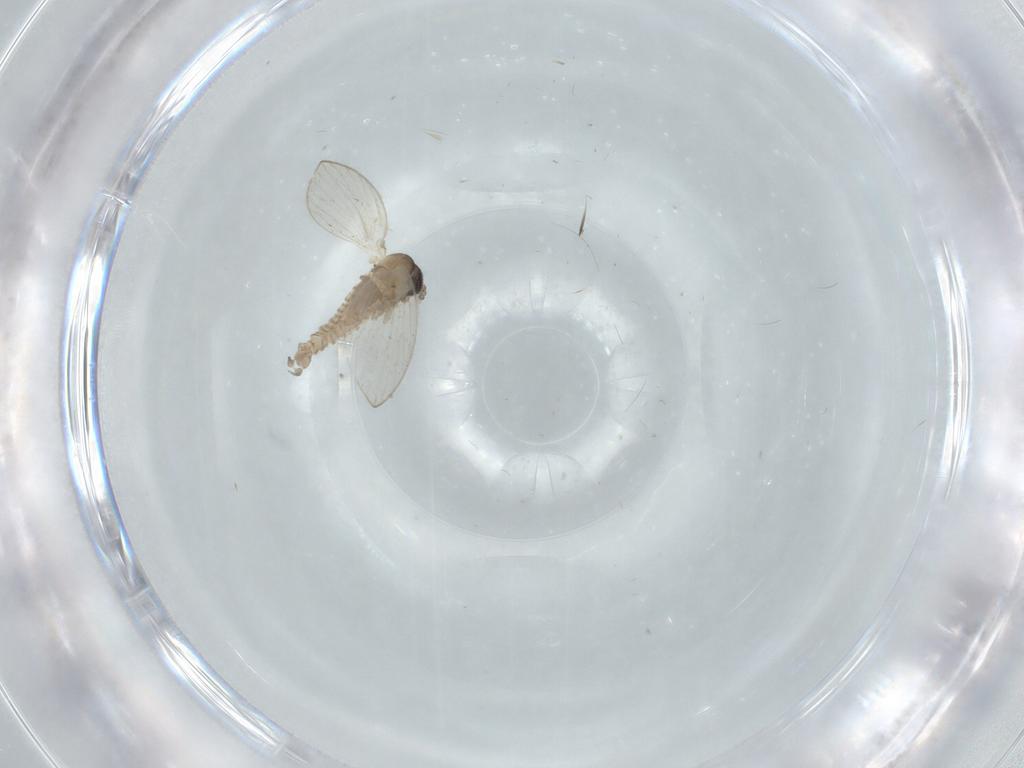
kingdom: Animalia
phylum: Arthropoda
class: Insecta
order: Diptera
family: Psychodidae
